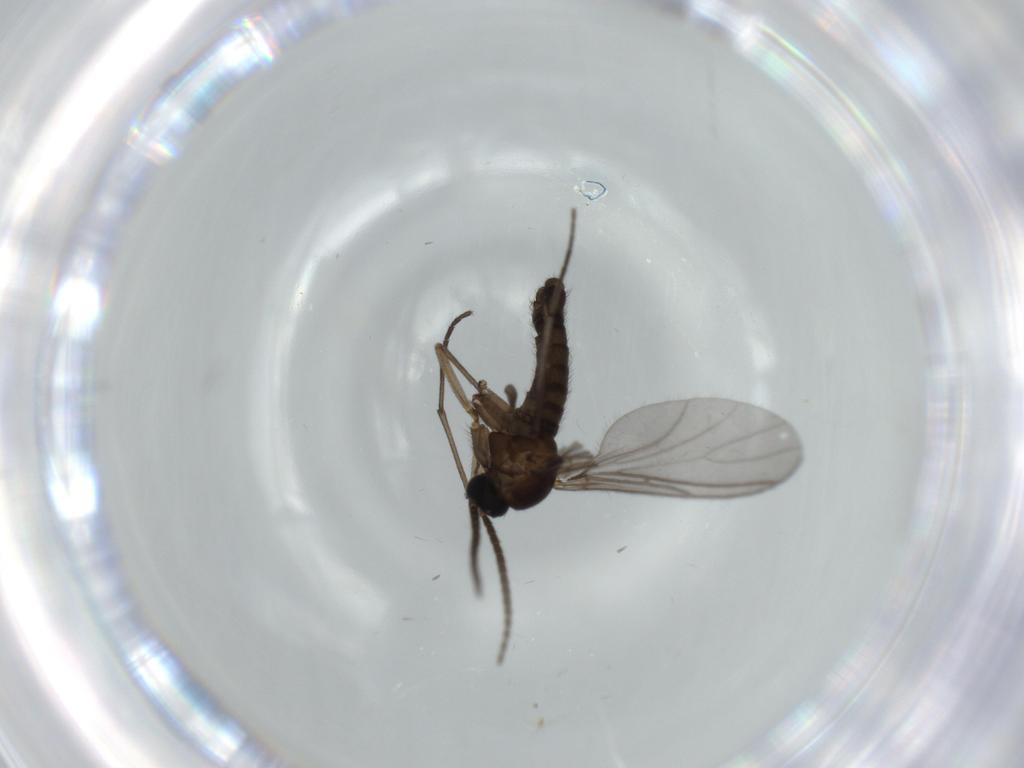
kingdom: Animalia
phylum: Arthropoda
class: Insecta
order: Diptera
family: Sciaridae
